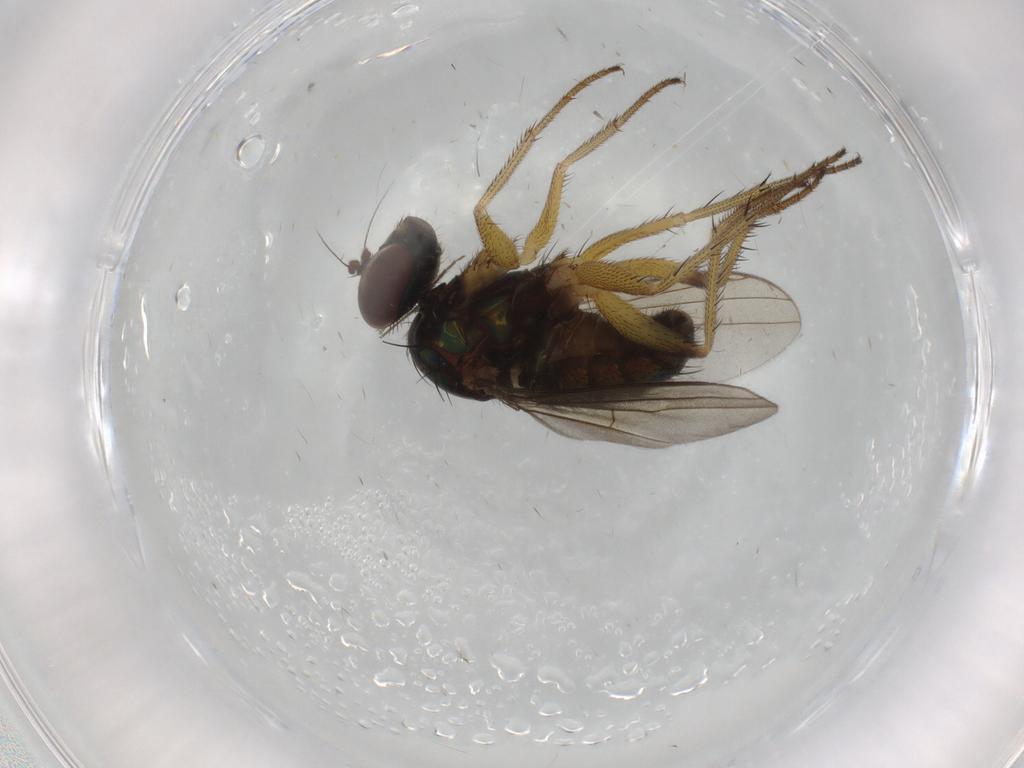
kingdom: Animalia
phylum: Arthropoda
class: Insecta
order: Diptera
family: Dolichopodidae
